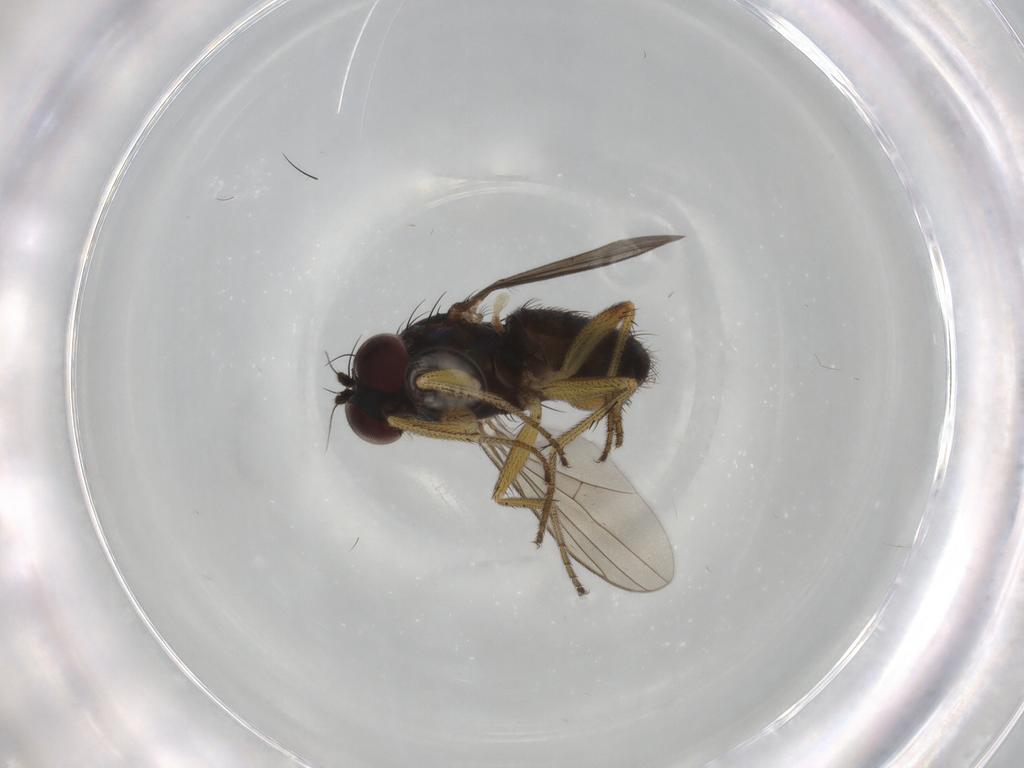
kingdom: Animalia
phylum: Arthropoda
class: Insecta
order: Diptera
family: Dolichopodidae
